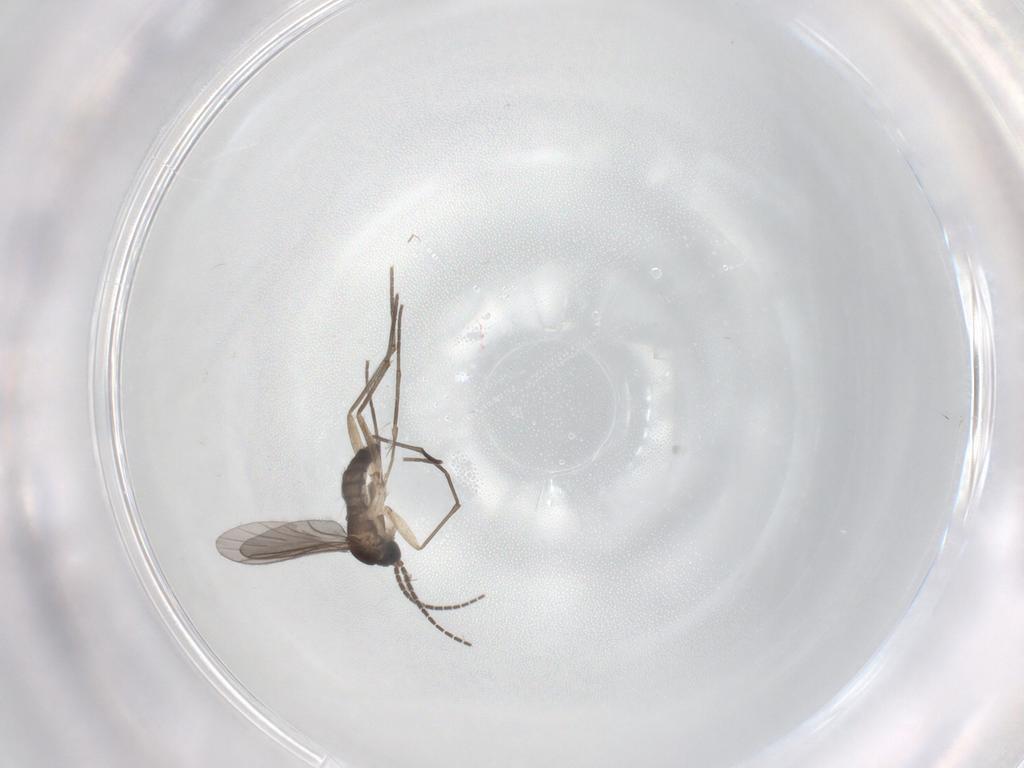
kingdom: Animalia
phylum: Arthropoda
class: Insecta
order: Diptera
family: Sciaridae
